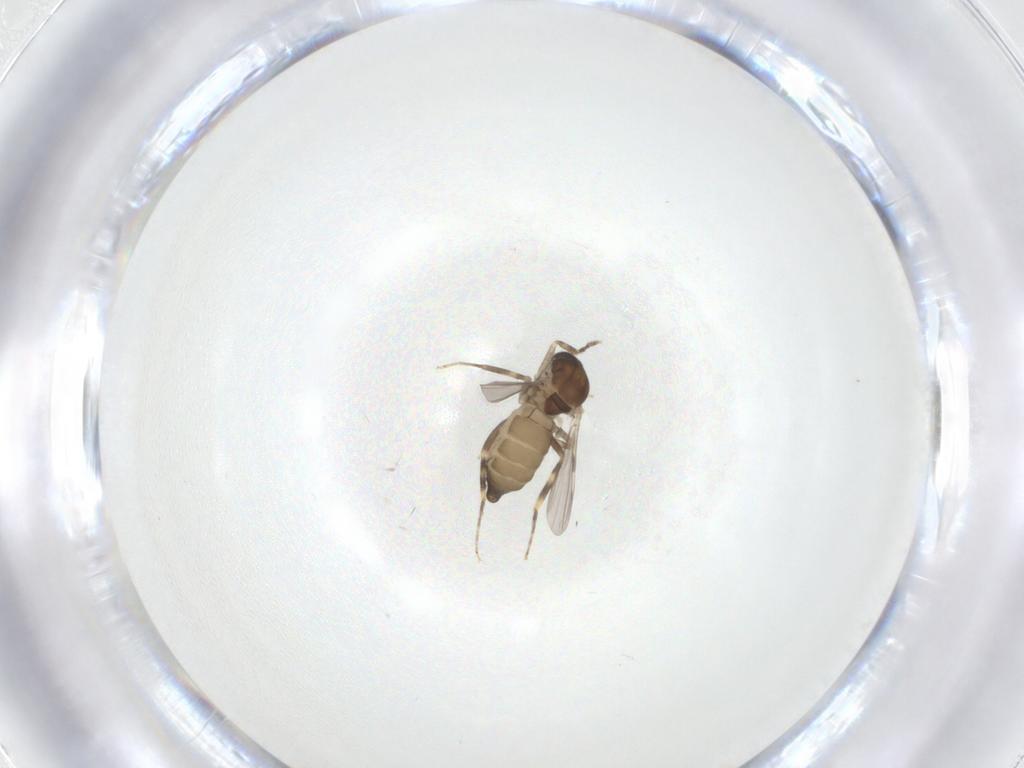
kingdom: Animalia
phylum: Arthropoda
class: Insecta
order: Diptera
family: Ceratopogonidae
